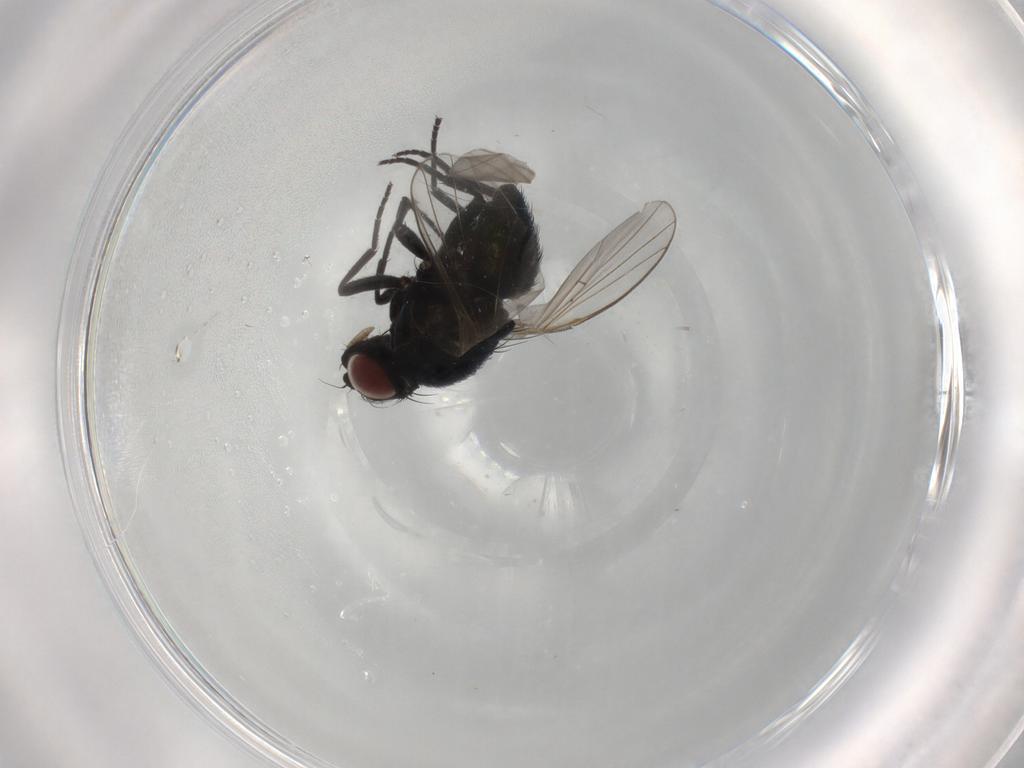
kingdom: Animalia
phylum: Arthropoda
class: Insecta
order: Diptera
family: Agromyzidae
